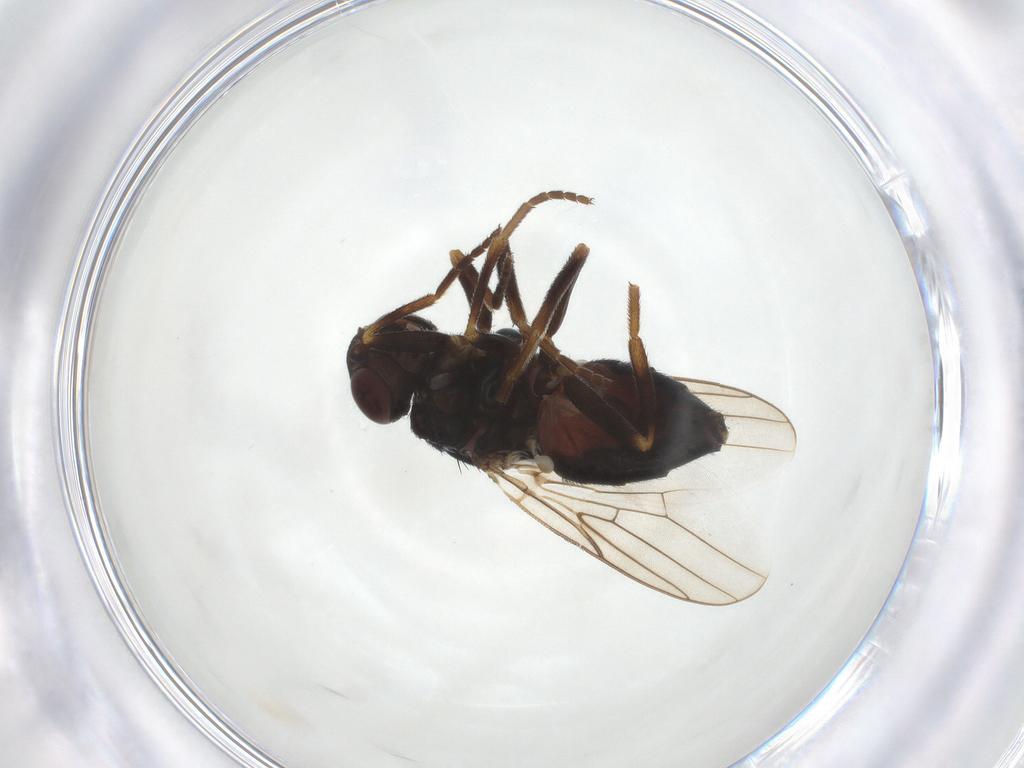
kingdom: Animalia
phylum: Arthropoda
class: Insecta
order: Diptera
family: Chloropidae
